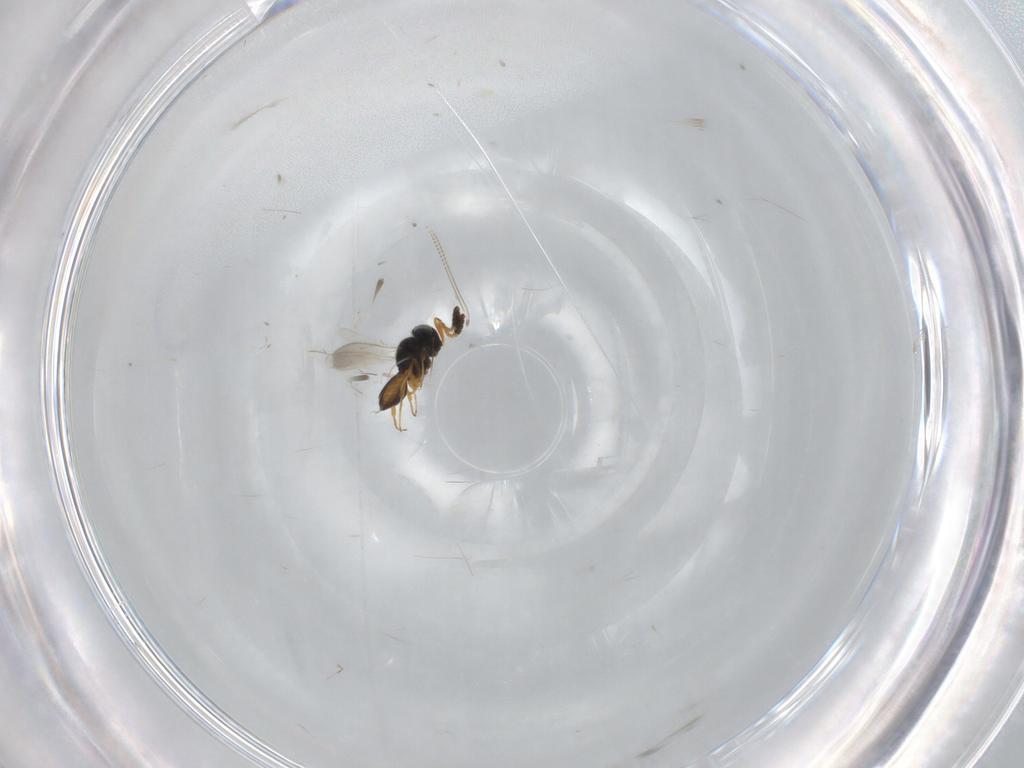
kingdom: Animalia
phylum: Arthropoda
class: Insecta
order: Hymenoptera
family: Scelionidae
